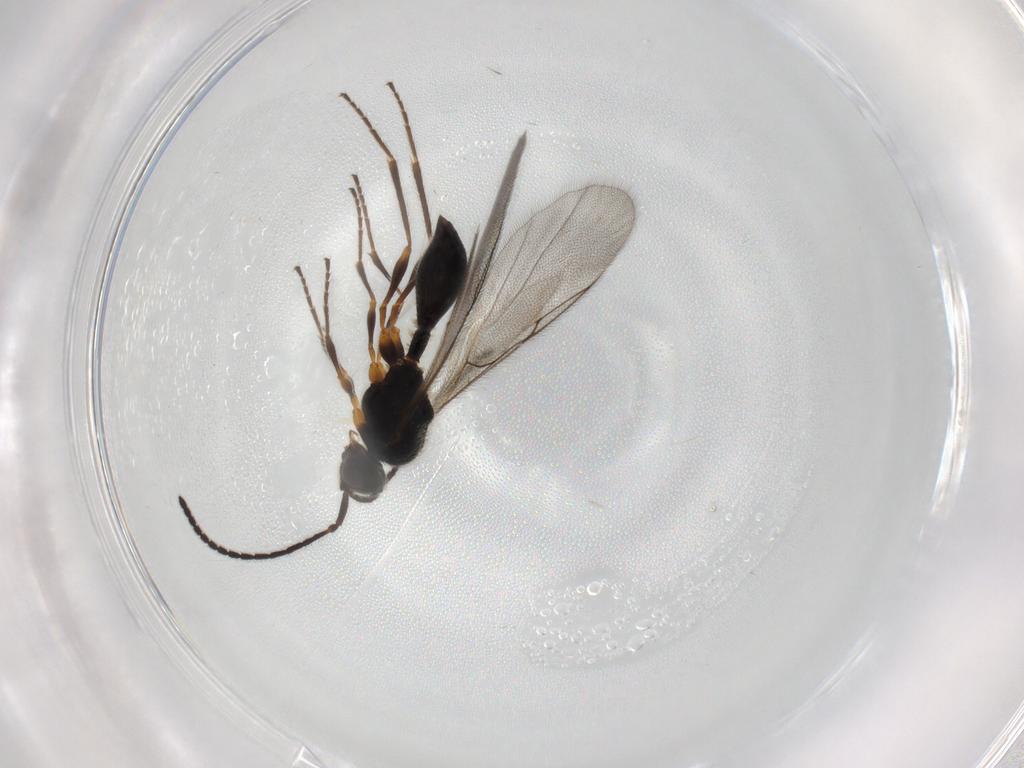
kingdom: Animalia
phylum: Arthropoda
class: Insecta
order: Hymenoptera
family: Diapriidae
